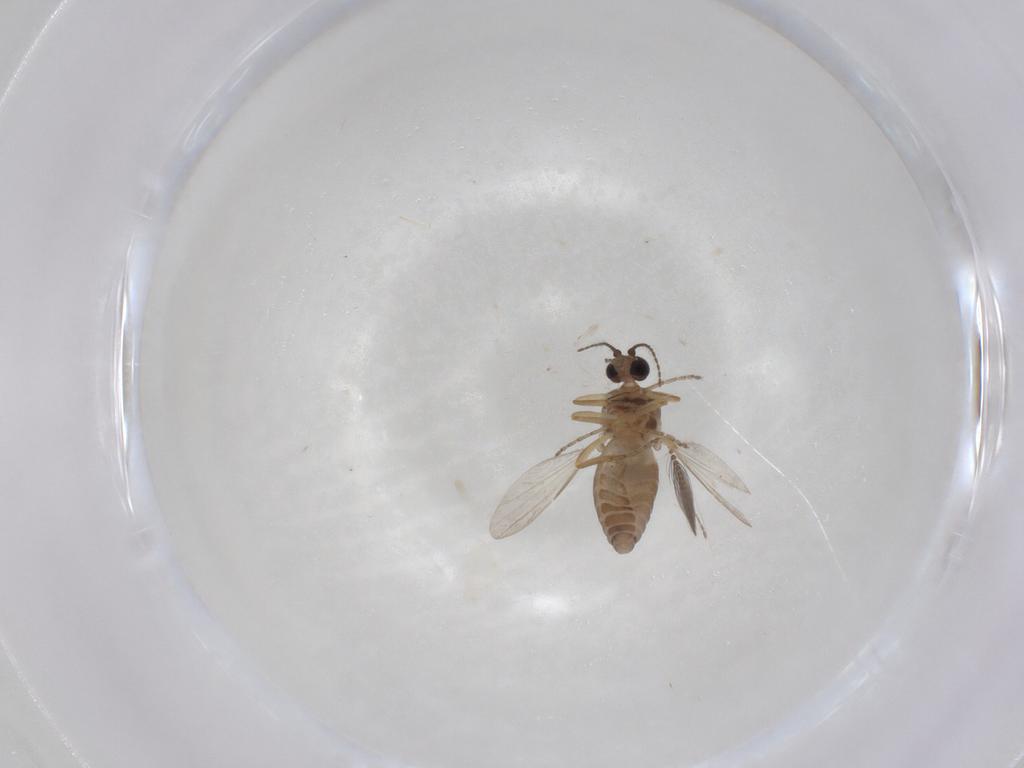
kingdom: Animalia
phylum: Arthropoda
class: Insecta
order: Diptera
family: Ceratopogonidae
